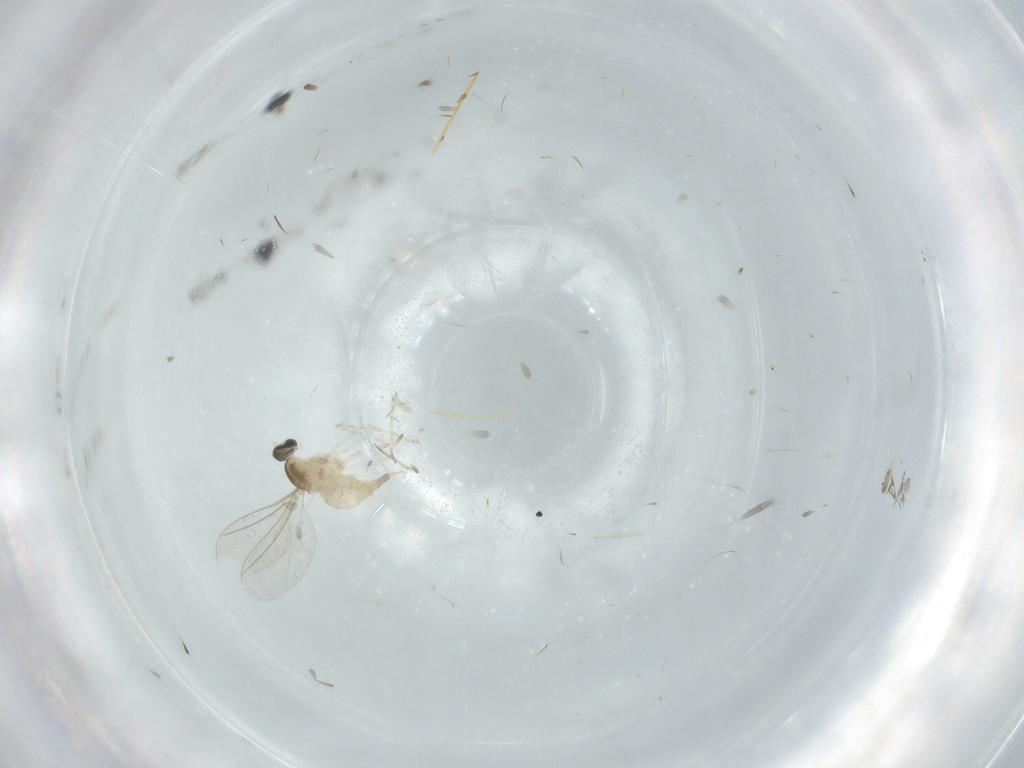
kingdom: Animalia
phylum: Arthropoda
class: Insecta
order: Diptera
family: Cecidomyiidae
